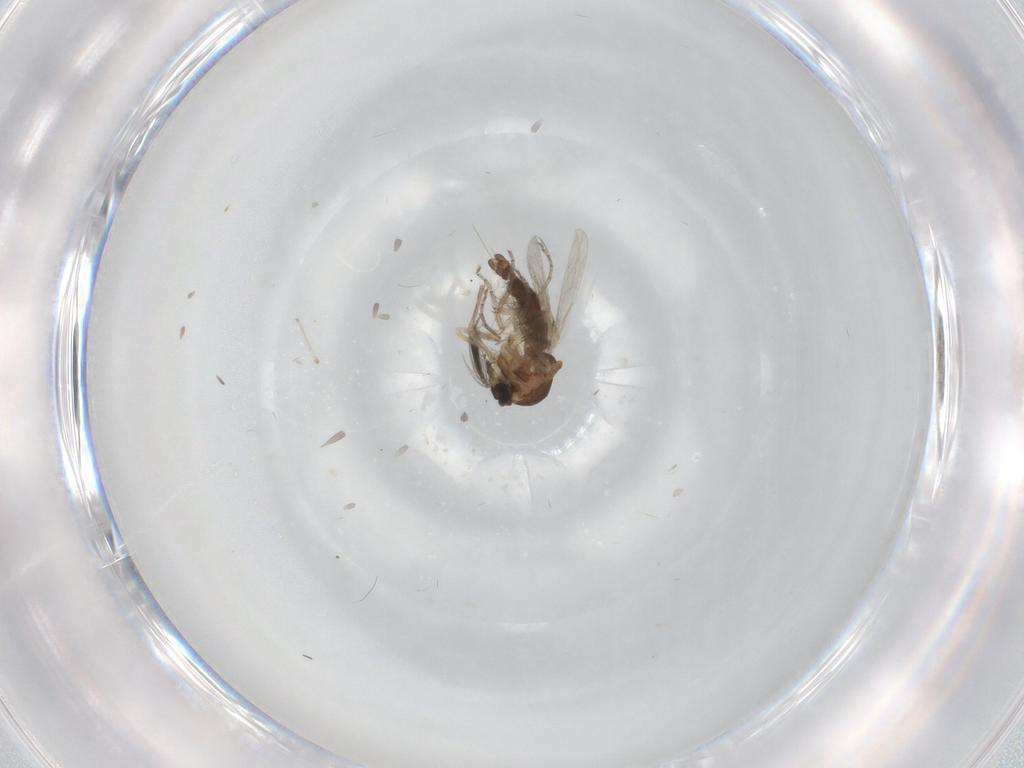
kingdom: Animalia
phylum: Arthropoda
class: Insecta
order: Diptera
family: Ceratopogonidae
